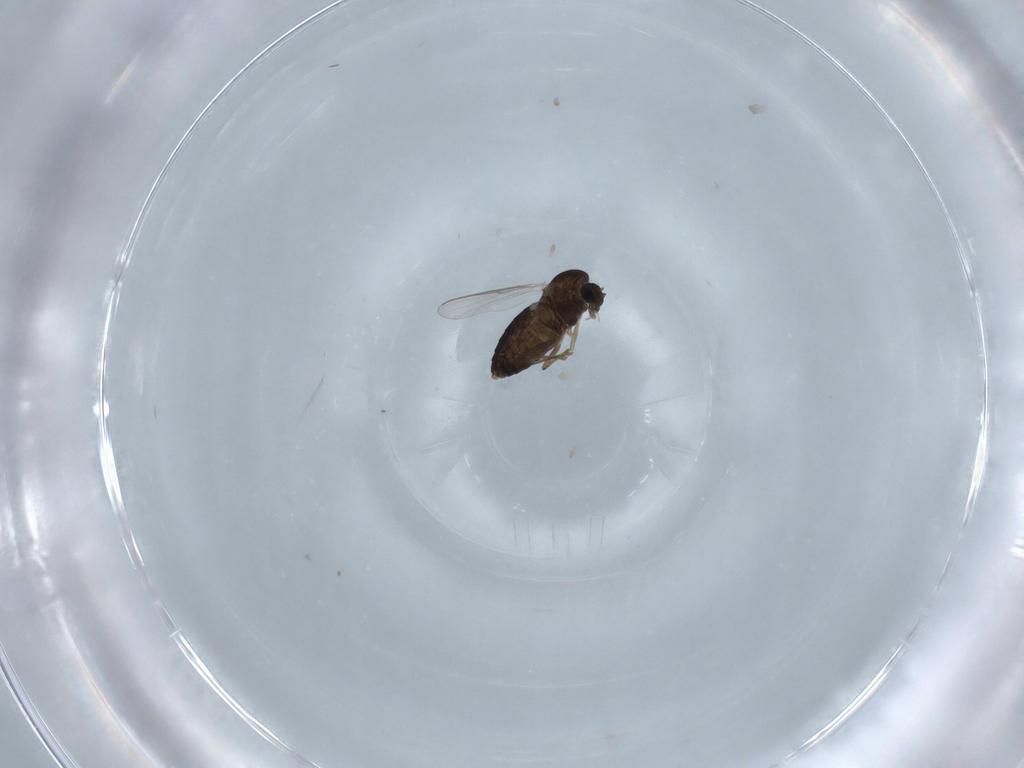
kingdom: Animalia
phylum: Arthropoda
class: Insecta
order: Diptera
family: Chironomidae
